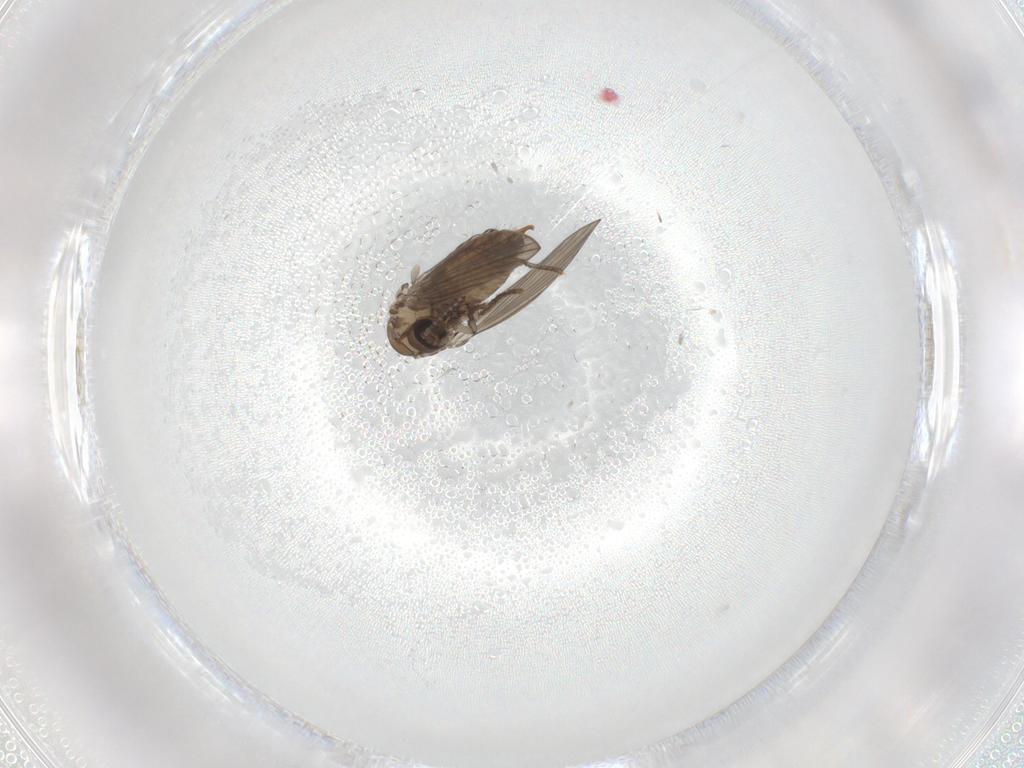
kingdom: Animalia
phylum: Arthropoda
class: Insecta
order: Diptera
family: Cecidomyiidae
